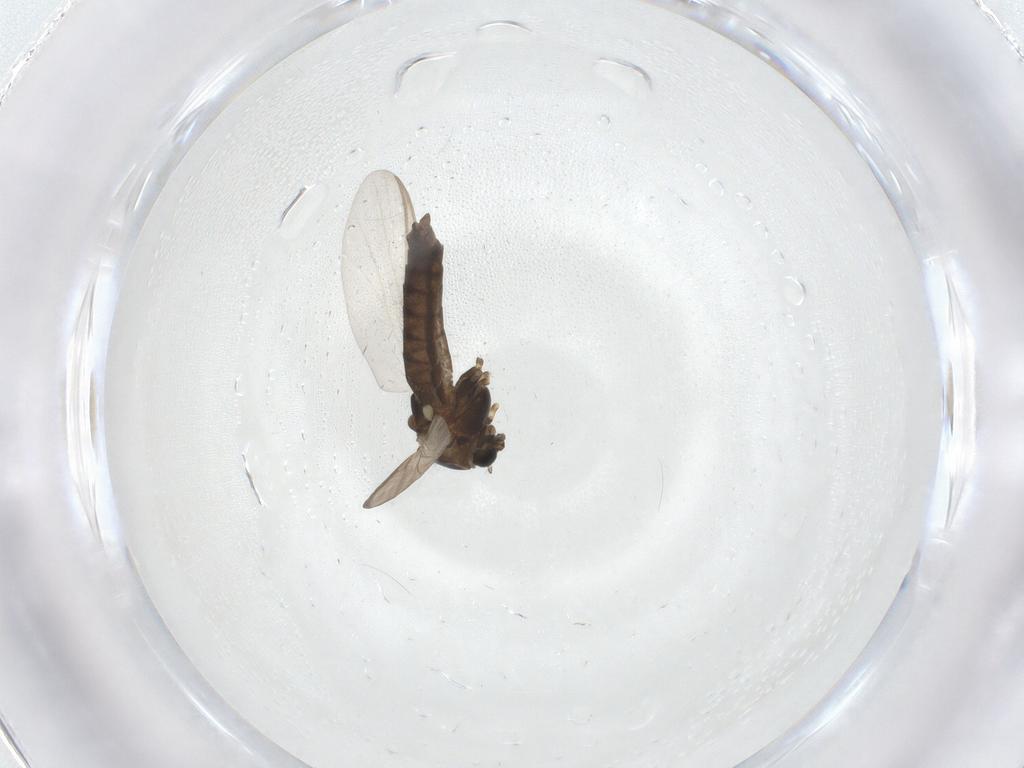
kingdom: Animalia
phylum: Arthropoda
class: Insecta
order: Diptera
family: Chironomidae
